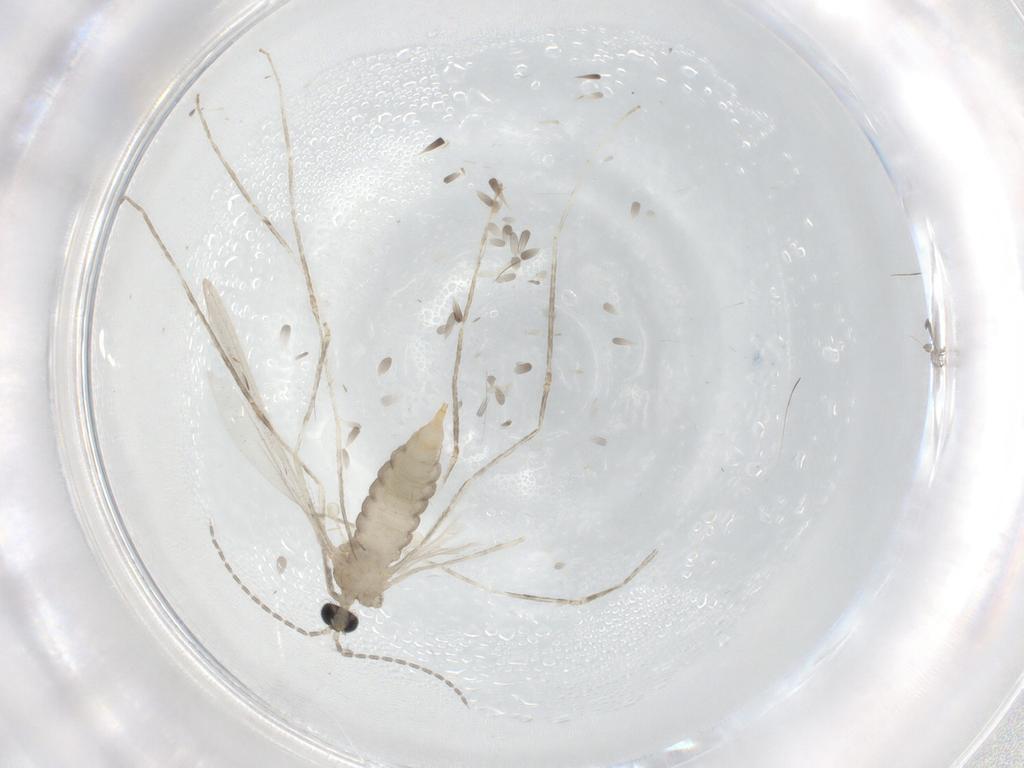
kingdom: Animalia
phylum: Arthropoda
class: Insecta
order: Diptera
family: Cecidomyiidae
